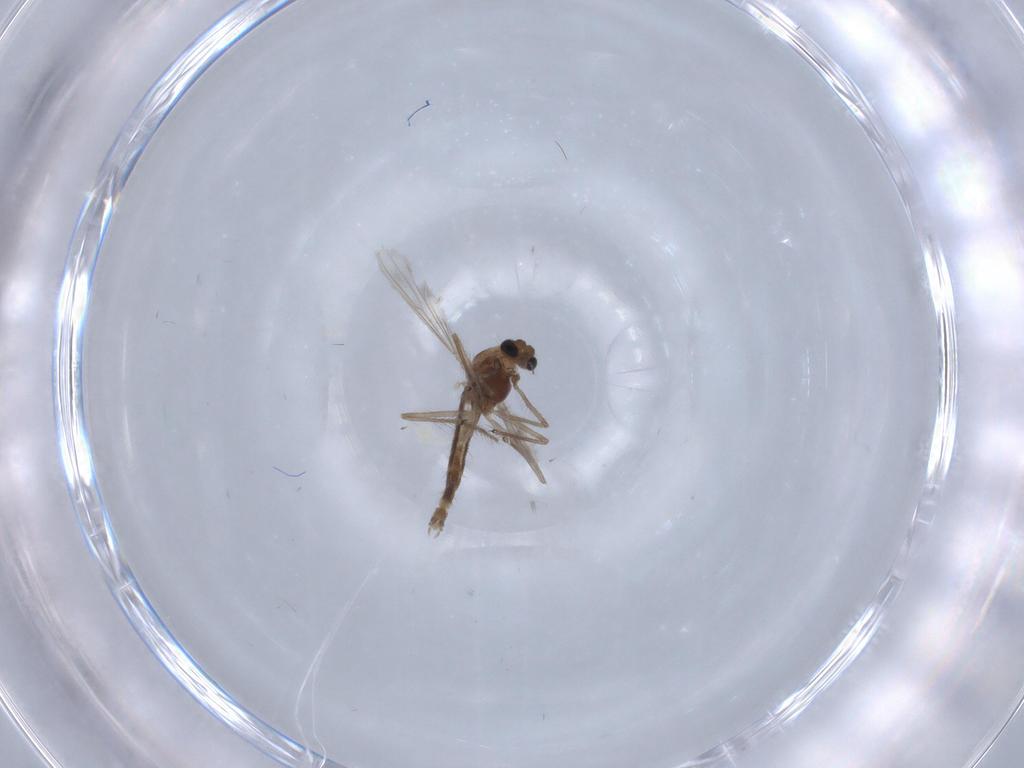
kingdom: Animalia
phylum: Arthropoda
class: Insecta
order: Diptera
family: Chironomidae
